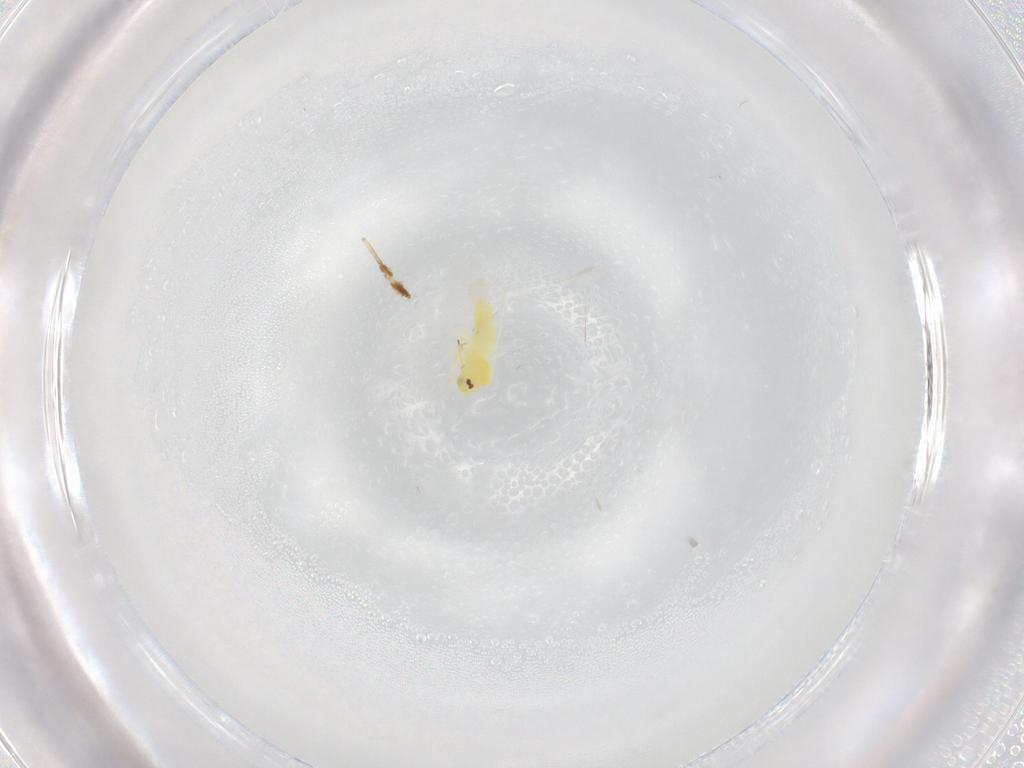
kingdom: Animalia
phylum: Arthropoda
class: Insecta
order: Hemiptera
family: Aleyrodidae
